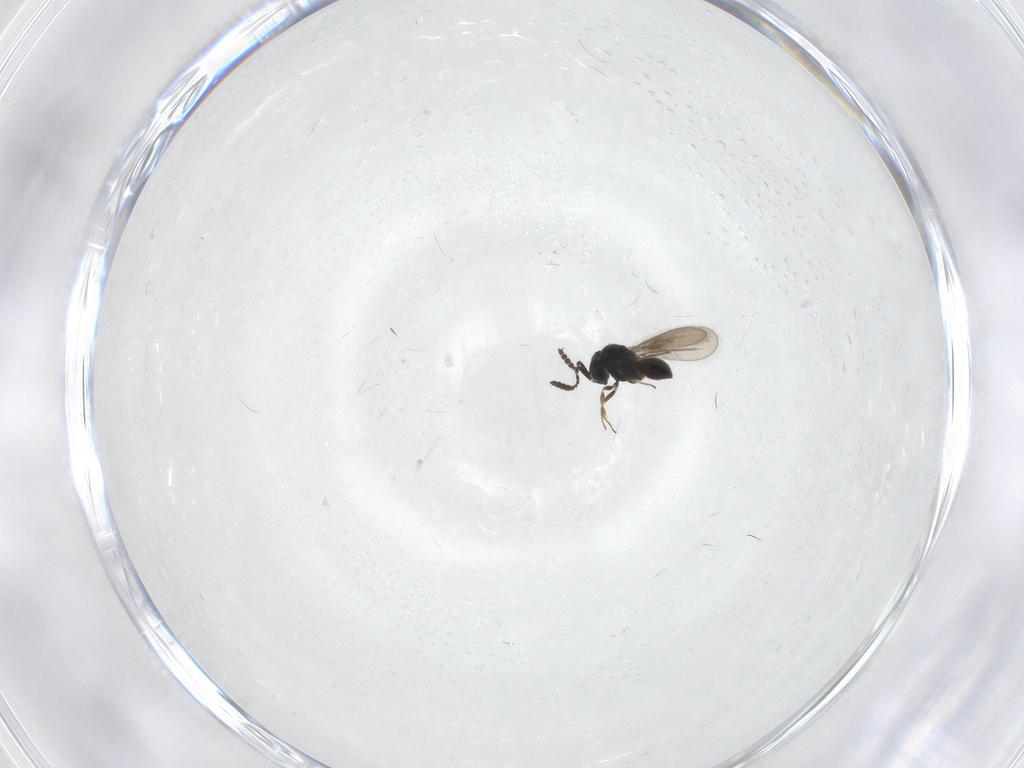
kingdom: Animalia
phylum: Arthropoda
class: Insecta
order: Hymenoptera
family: Scelionidae
